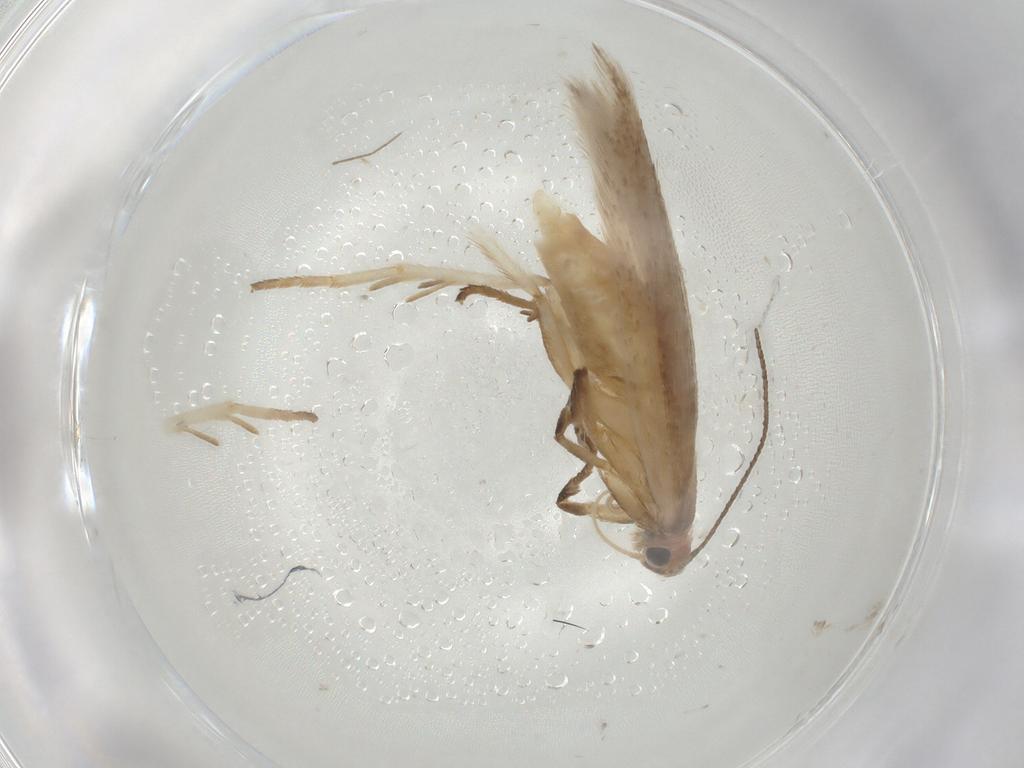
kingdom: Animalia
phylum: Arthropoda
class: Insecta
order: Lepidoptera
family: Gelechiidae
